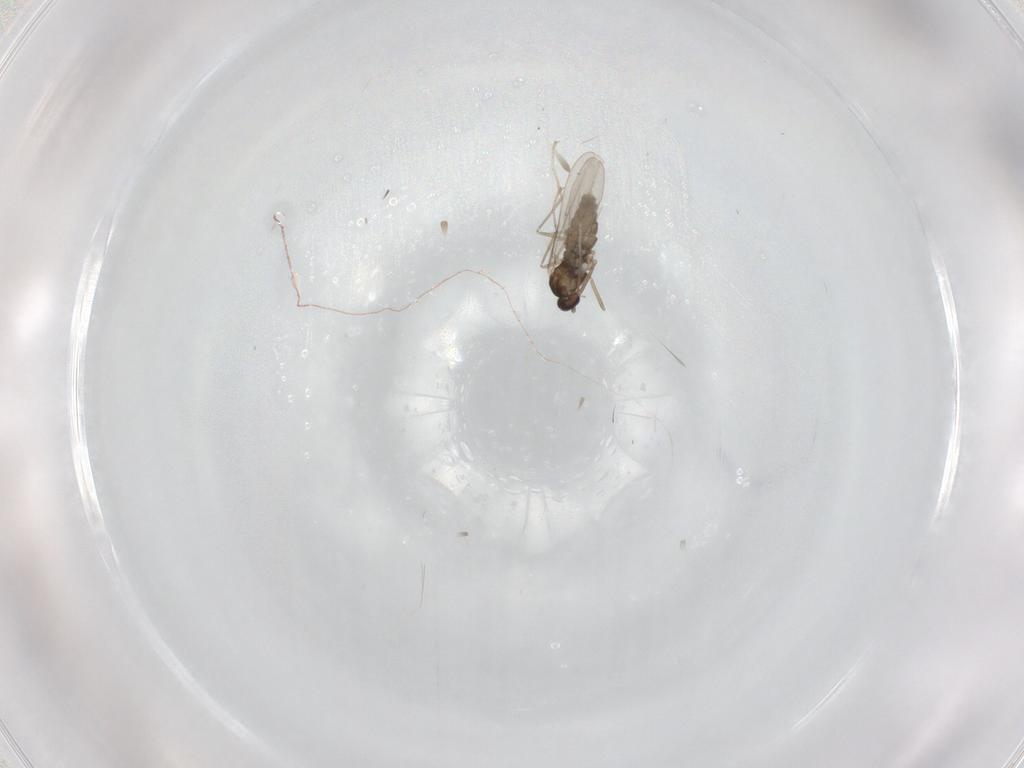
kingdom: Animalia
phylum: Arthropoda
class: Insecta
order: Diptera
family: Cecidomyiidae
